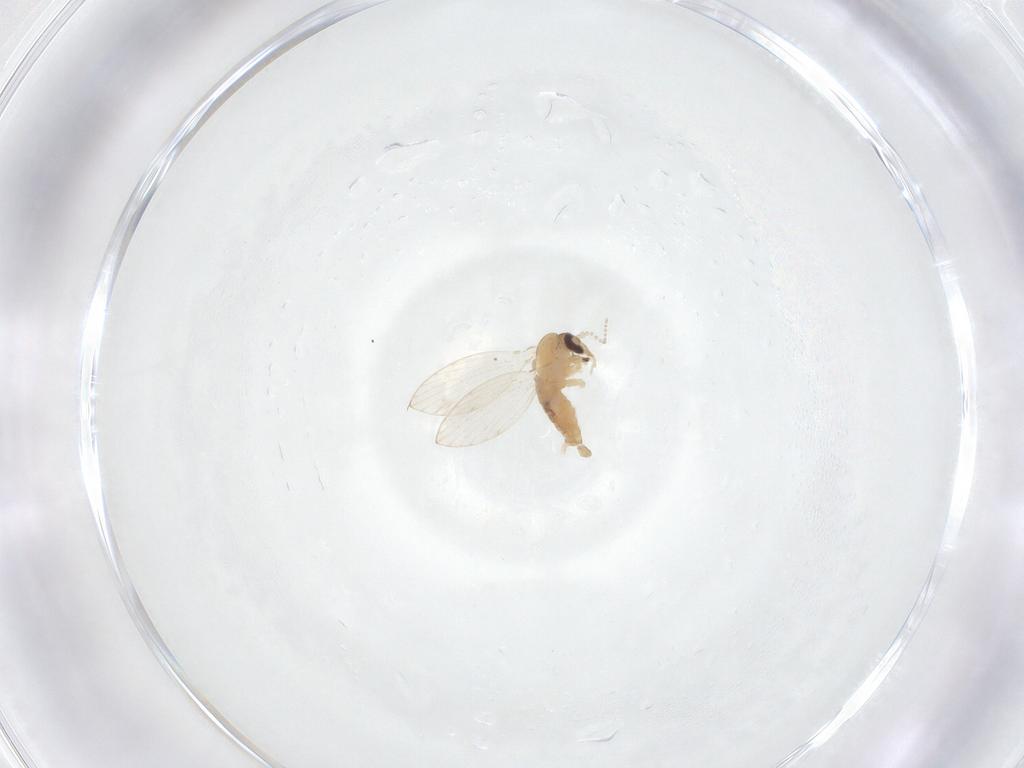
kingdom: Animalia
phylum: Arthropoda
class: Insecta
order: Diptera
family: Psychodidae
